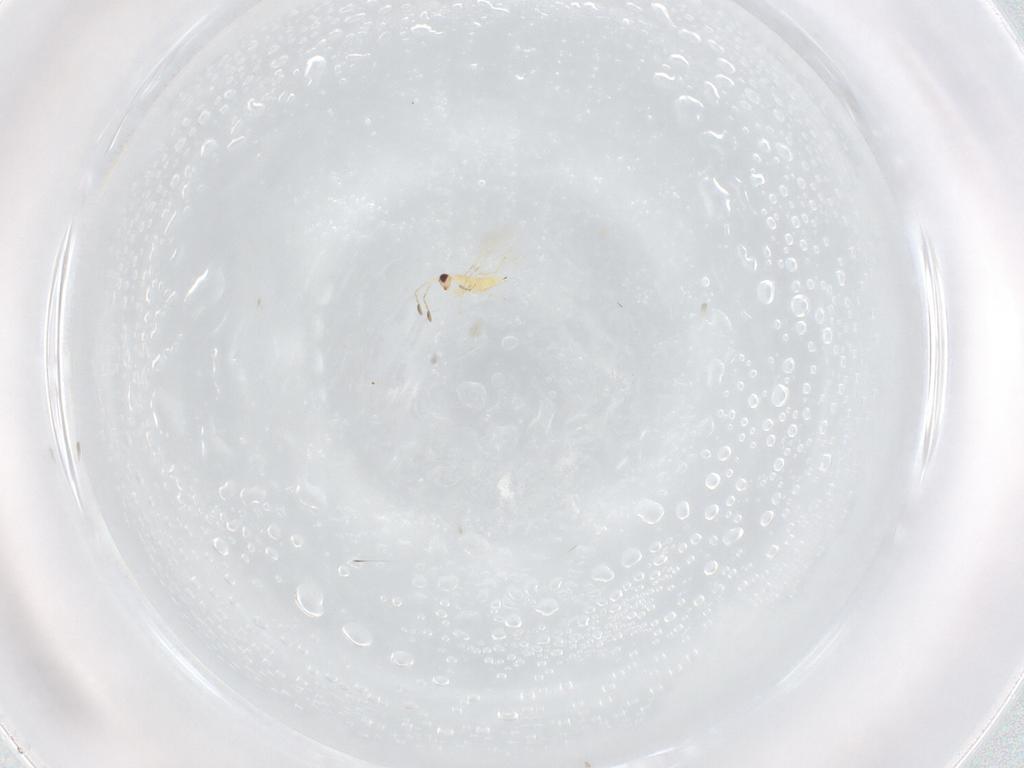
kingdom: Animalia
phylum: Arthropoda
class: Insecta
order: Hymenoptera
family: Mymaridae
